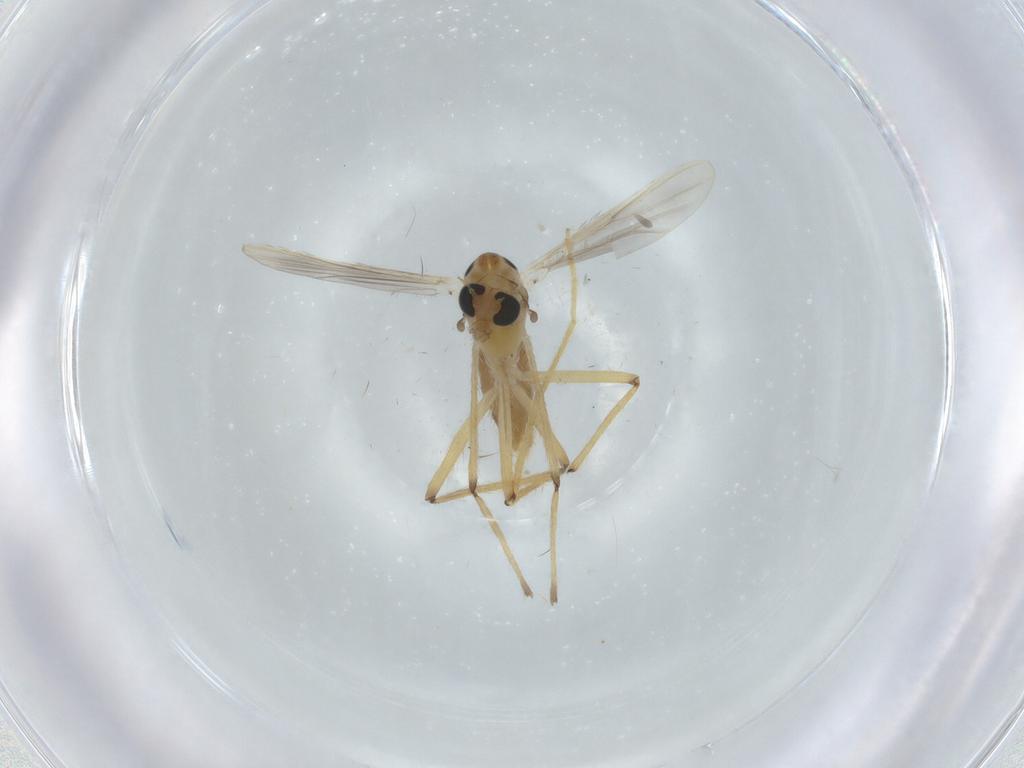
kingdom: Animalia
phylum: Arthropoda
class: Insecta
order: Diptera
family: Chironomidae
